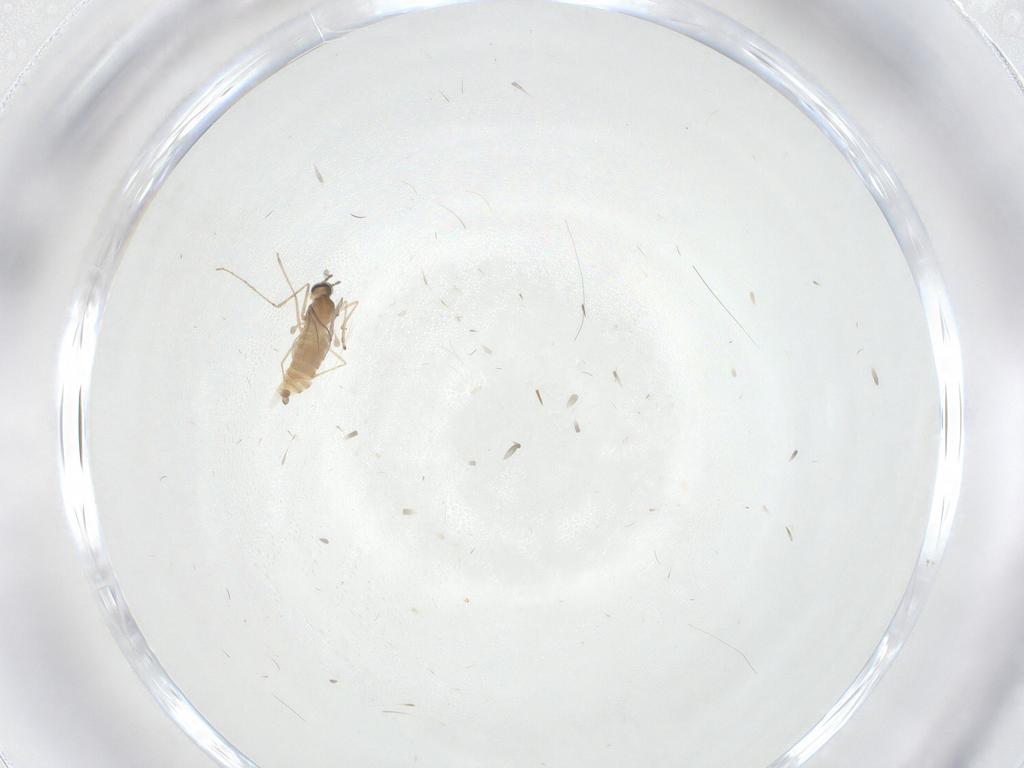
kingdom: Animalia
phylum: Arthropoda
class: Insecta
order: Diptera
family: Cecidomyiidae
